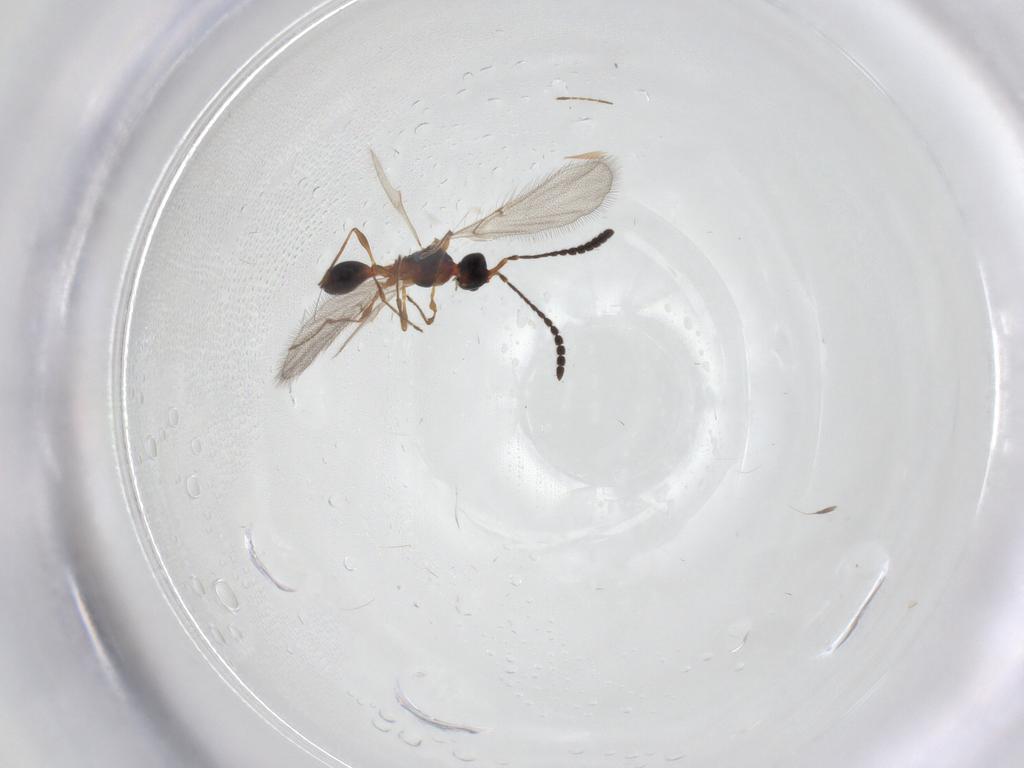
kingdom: Animalia
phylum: Arthropoda
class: Insecta
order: Hymenoptera
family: Diapriidae
